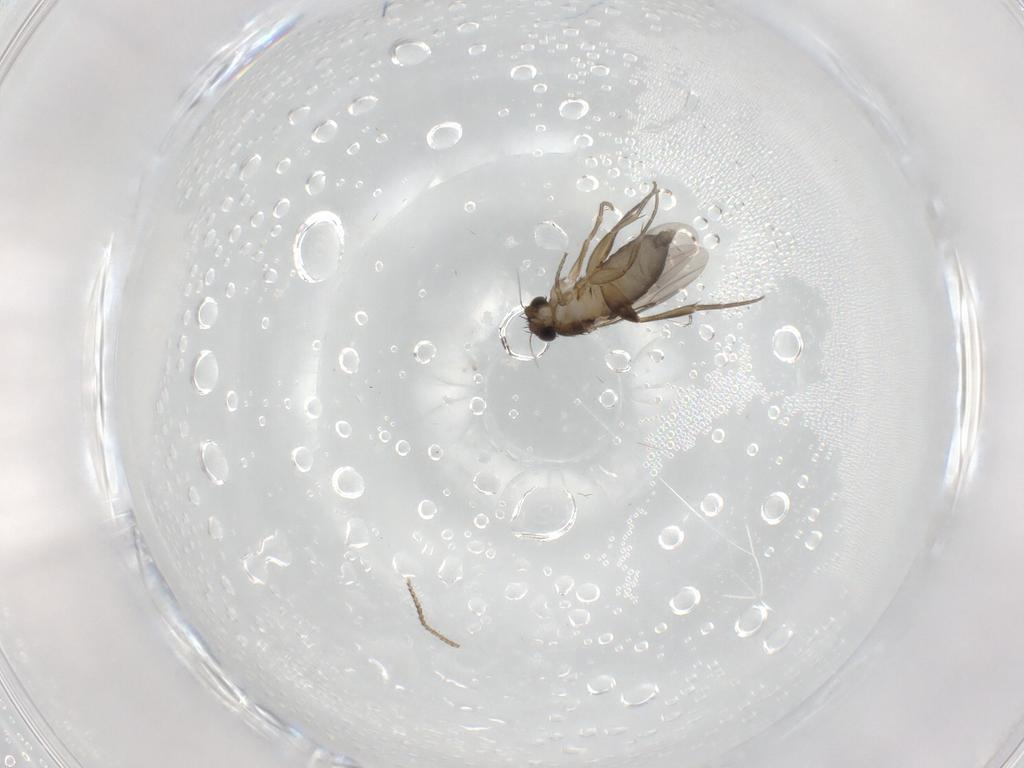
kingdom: Animalia
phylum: Arthropoda
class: Insecta
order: Diptera
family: Phoridae
